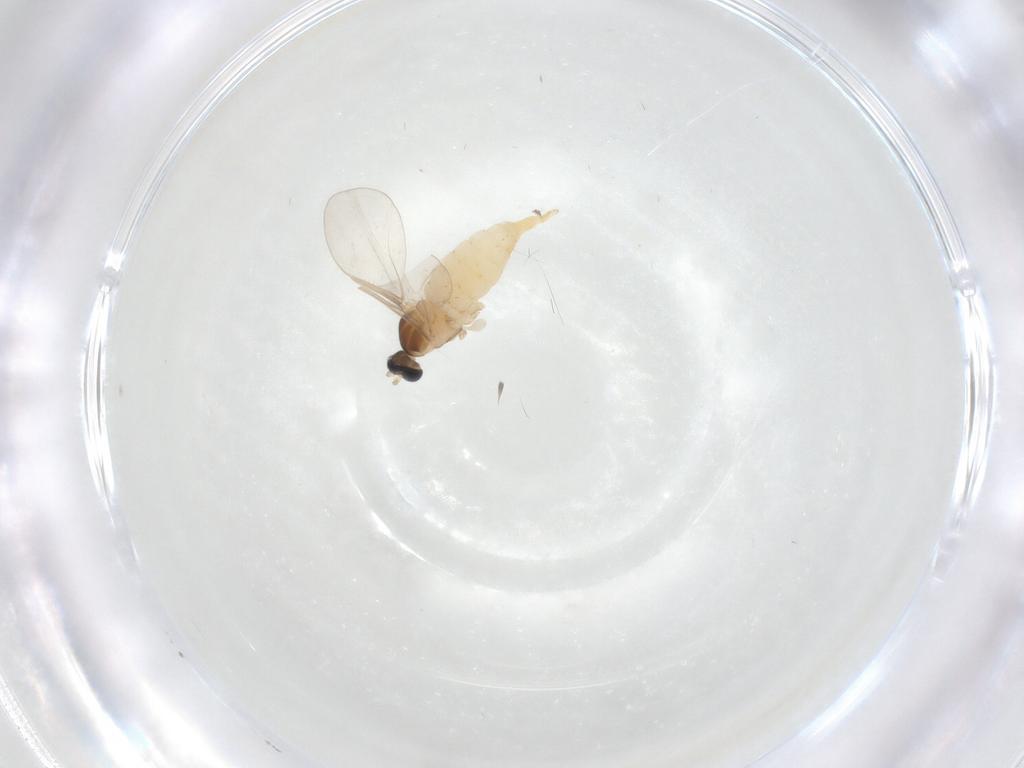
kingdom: Animalia
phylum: Arthropoda
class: Insecta
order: Diptera
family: Cecidomyiidae
